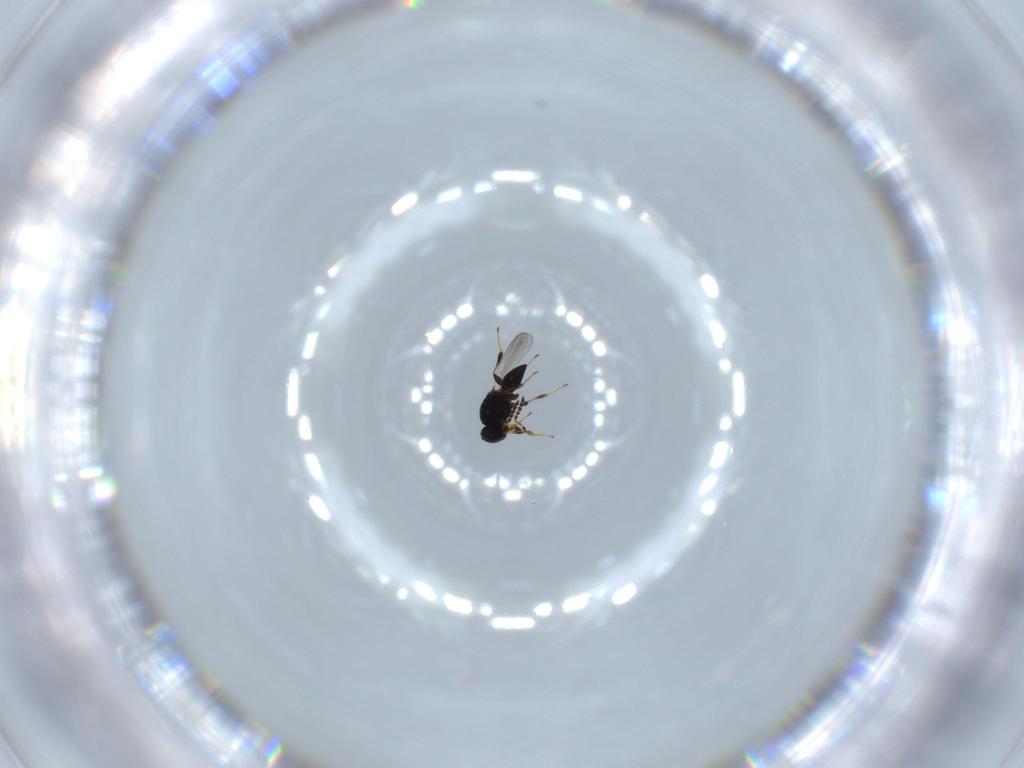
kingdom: Animalia
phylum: Arthropoda
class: Insecta
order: Hymenoptera
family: Platygastridae
